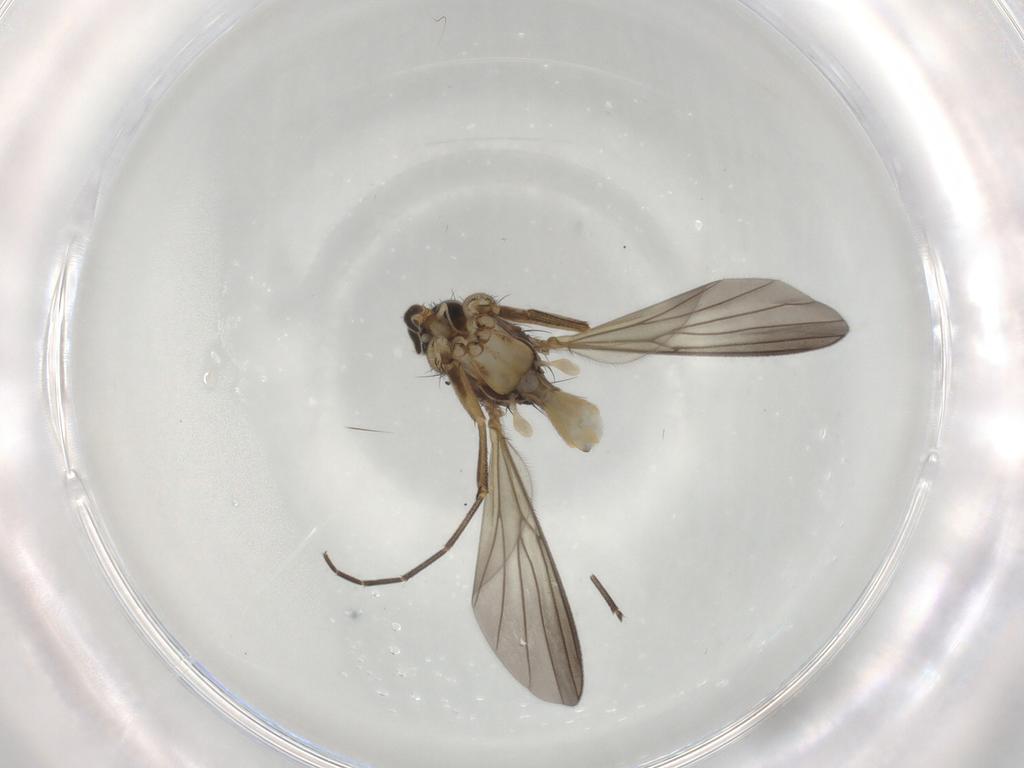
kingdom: Animalia
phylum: Arthropoda
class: Insecta
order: Diptera
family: Mycetophilidae
